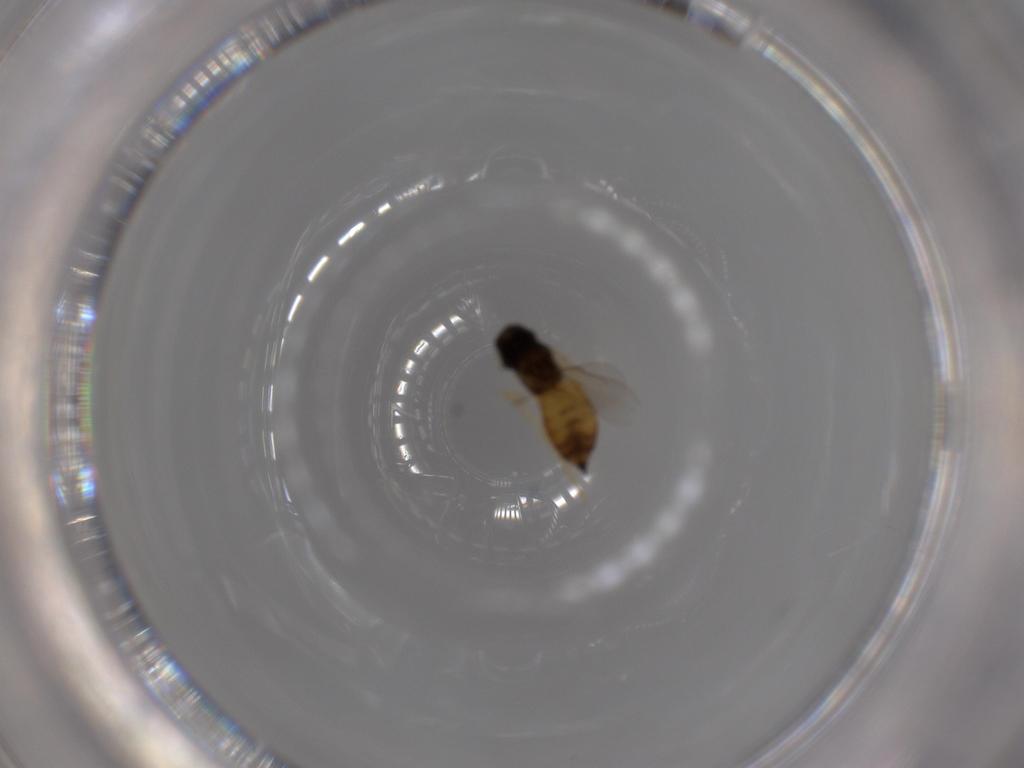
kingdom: Animalia
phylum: Arthropoda
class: Insecta
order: Hymenoptera
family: Eulophidae
